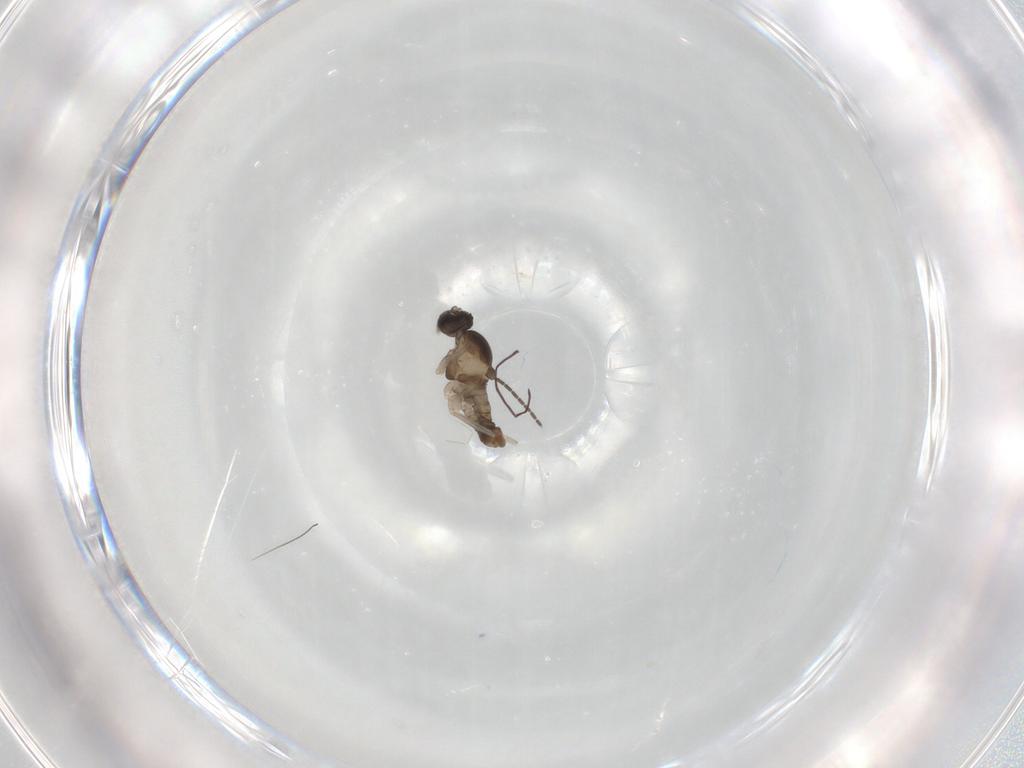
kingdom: Animalia
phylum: Arthropoda
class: Insecta
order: Diptera
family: Cecidomyiidae
